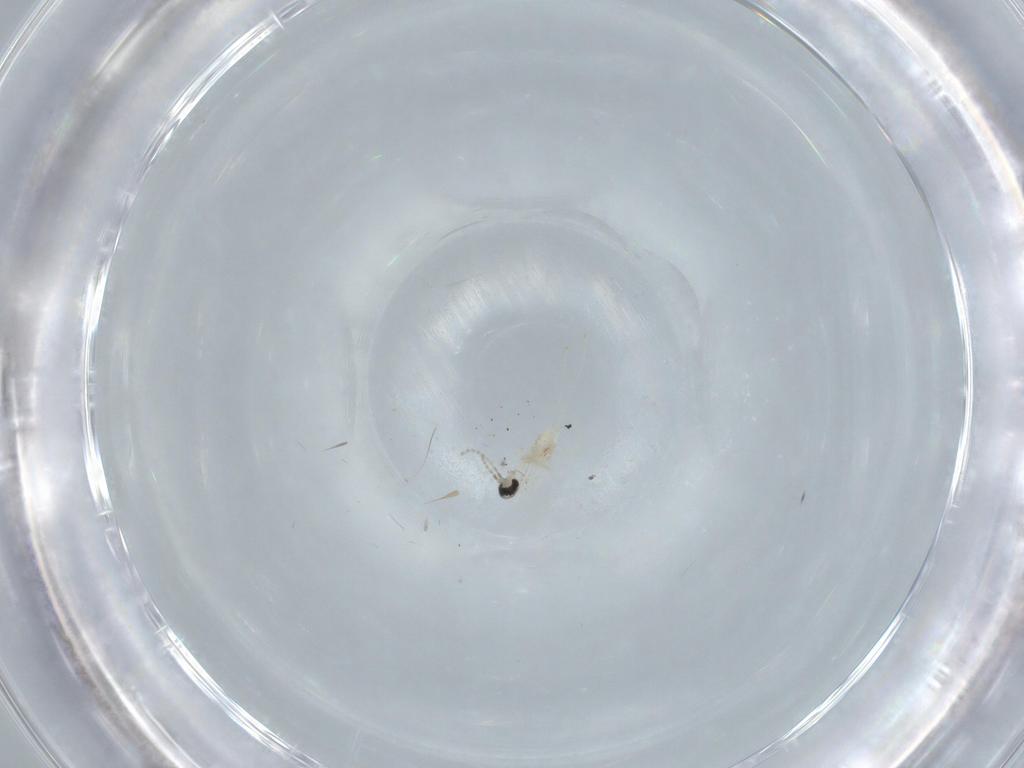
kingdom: Animalia
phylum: Arthropoda
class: Insecta
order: Diptera
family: Cecidomyiidae
